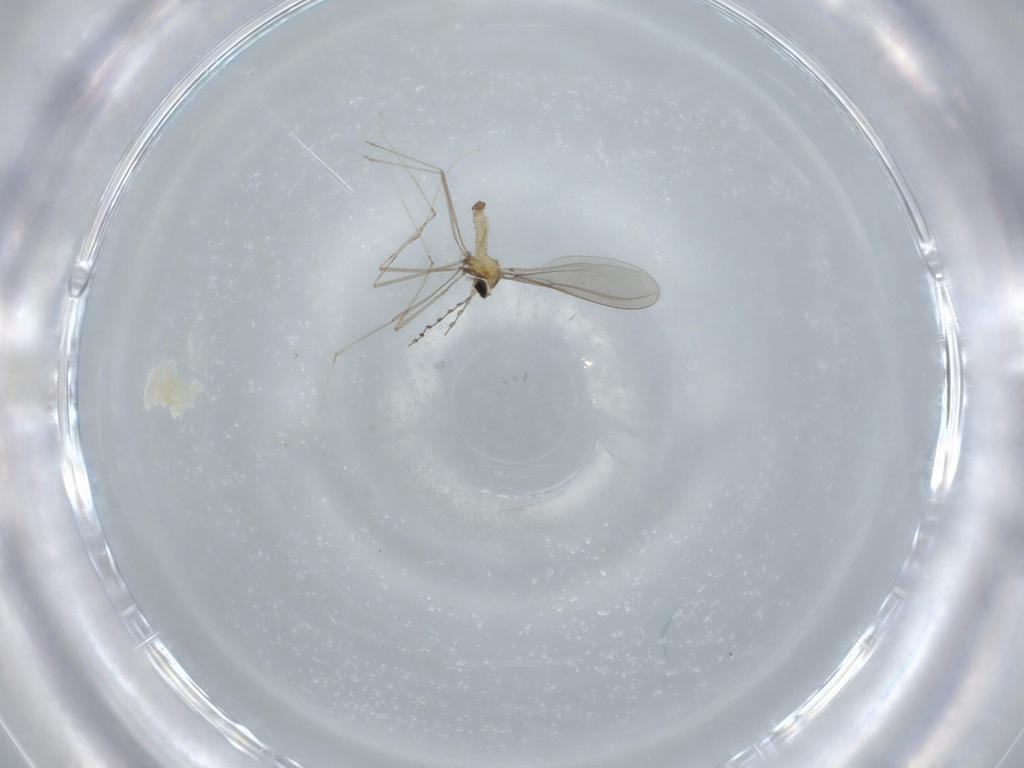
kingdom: Animalia
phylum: Arthropoda
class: Insecta
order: Diptera
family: Cecidomyiidae
